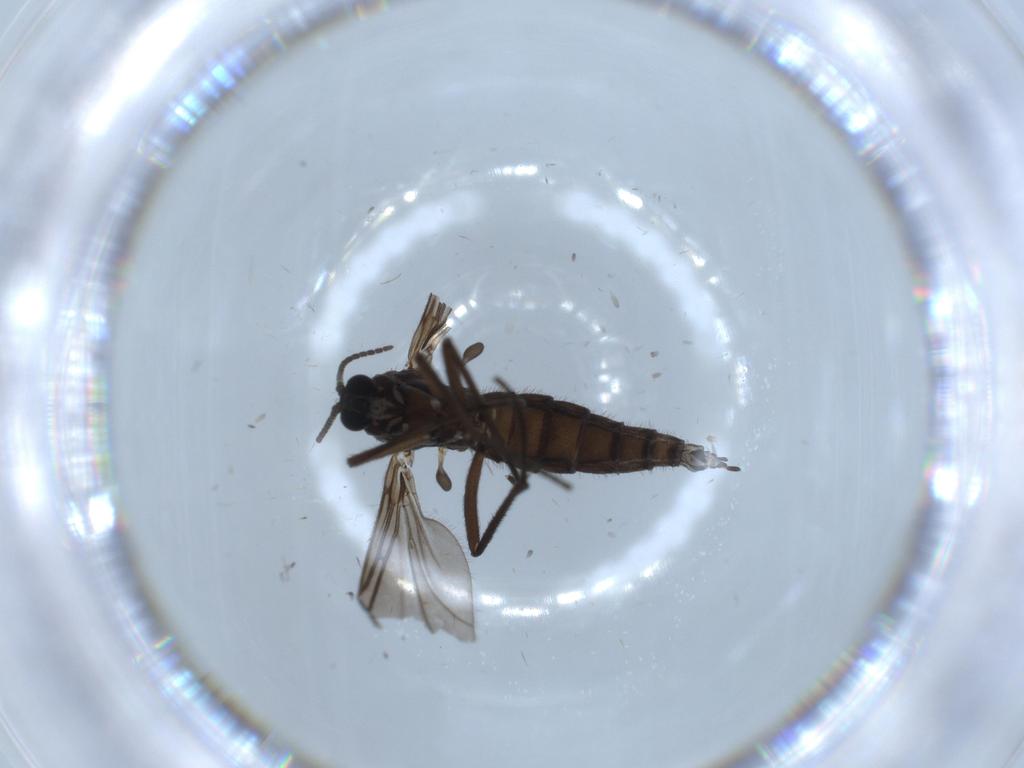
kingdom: Animalia
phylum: Arthropoda
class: Insecta
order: Diptera
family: Sciaridae
